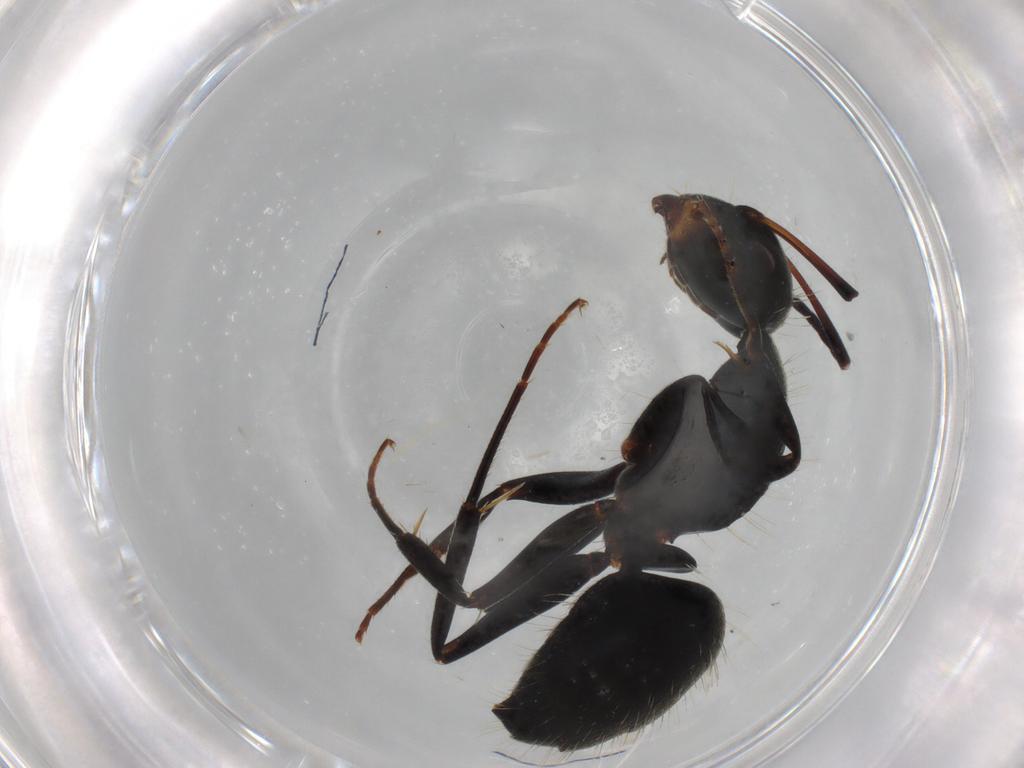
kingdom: Animalia
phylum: Arthropoda
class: Insecta
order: Hymenoptera
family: Formicidae
